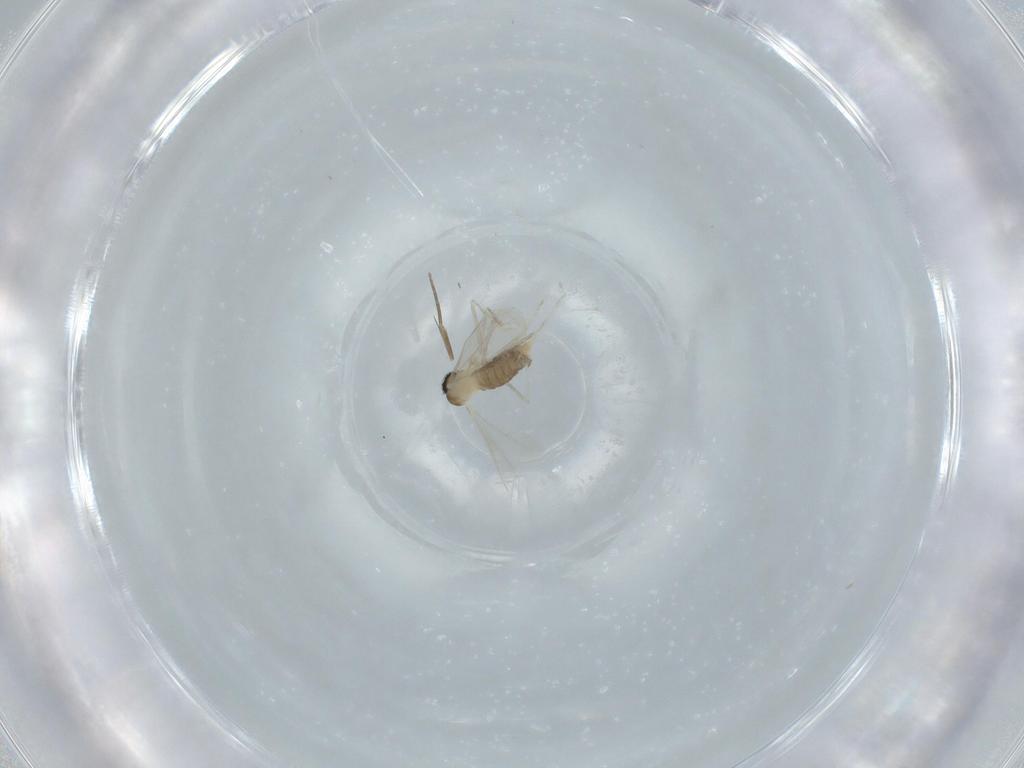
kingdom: Animalia
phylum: Arthropoda
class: Insecta
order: Diptera
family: Cecidomyiidae
